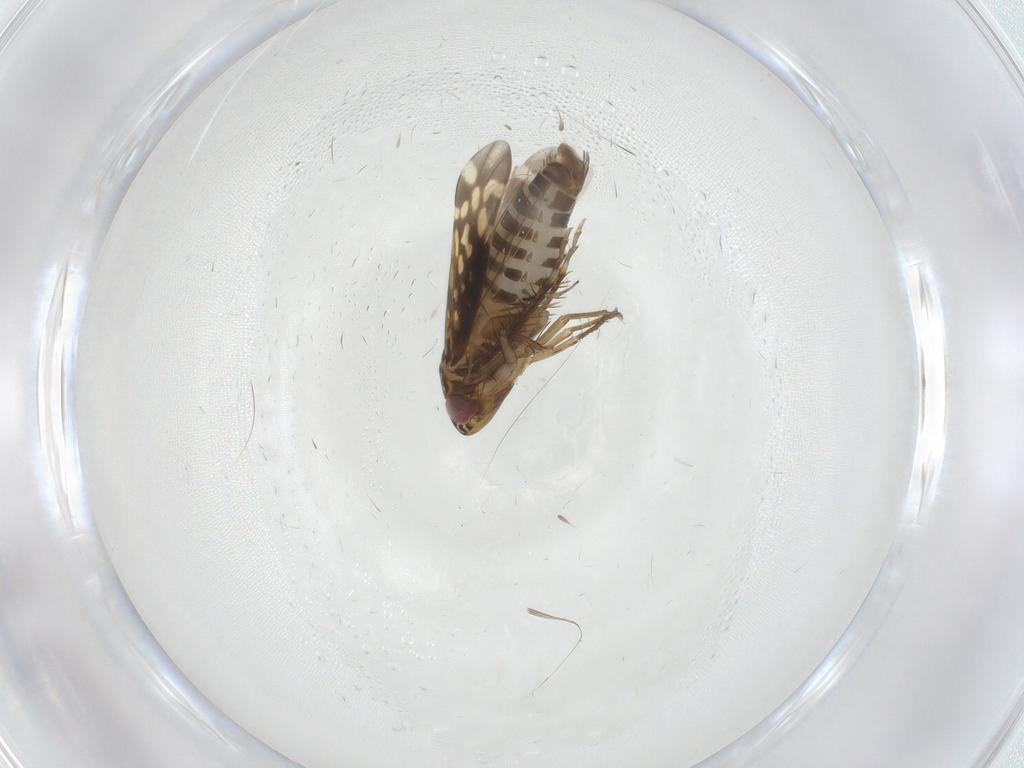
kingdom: Animalia
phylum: Arthropoda
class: Insecta
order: Hemiptera
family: Cicadellidae
